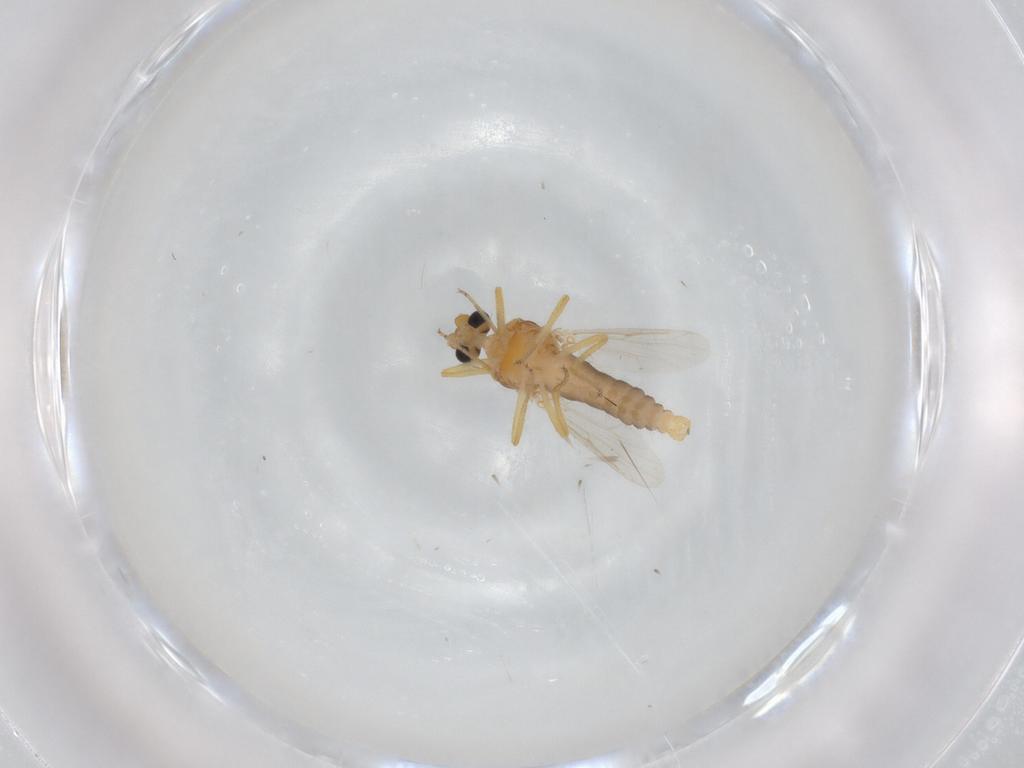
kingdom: Animalia
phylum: Arthropoda
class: Insecta
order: Diptera
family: Ceratopogonidae
